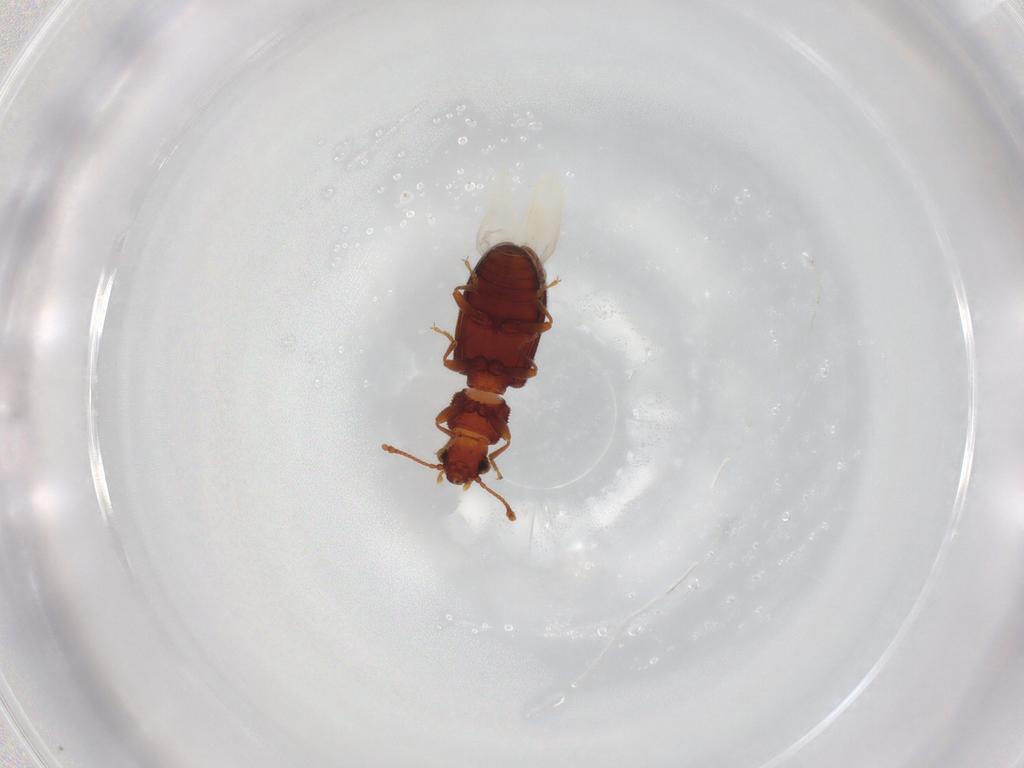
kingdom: Animalia
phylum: Arthropoda
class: Insecta
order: Coleoptera
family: Mycetophagidae
